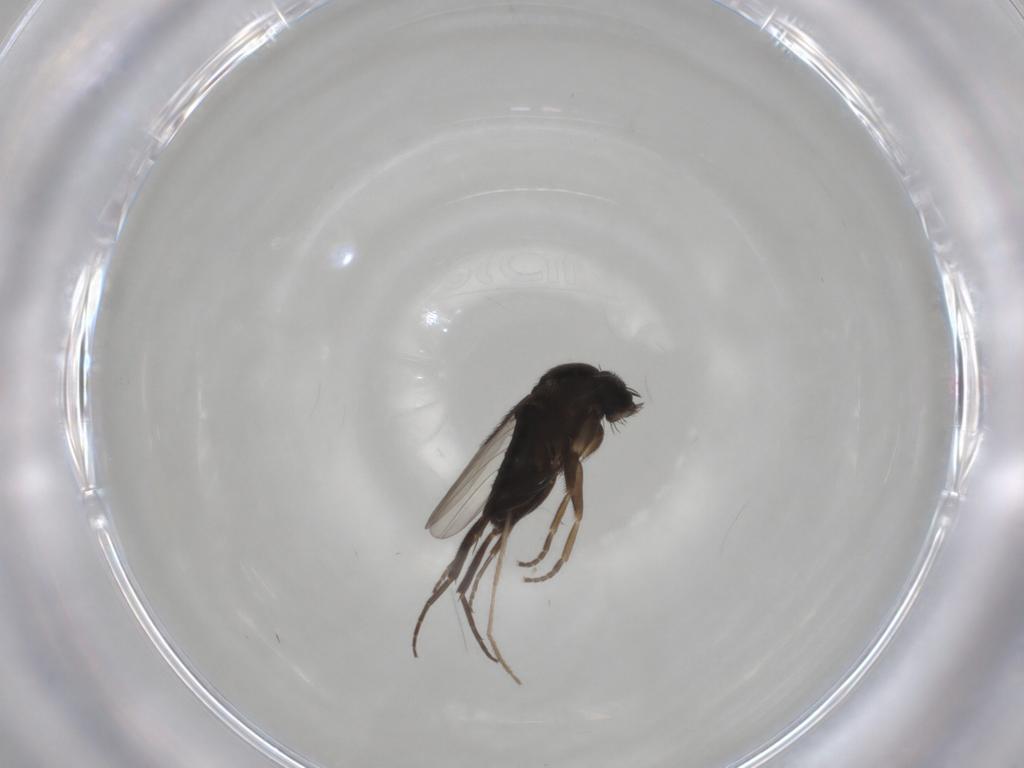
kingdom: Animalia
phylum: Arthropoda
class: Insecta
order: Diptera
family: Phoridae
